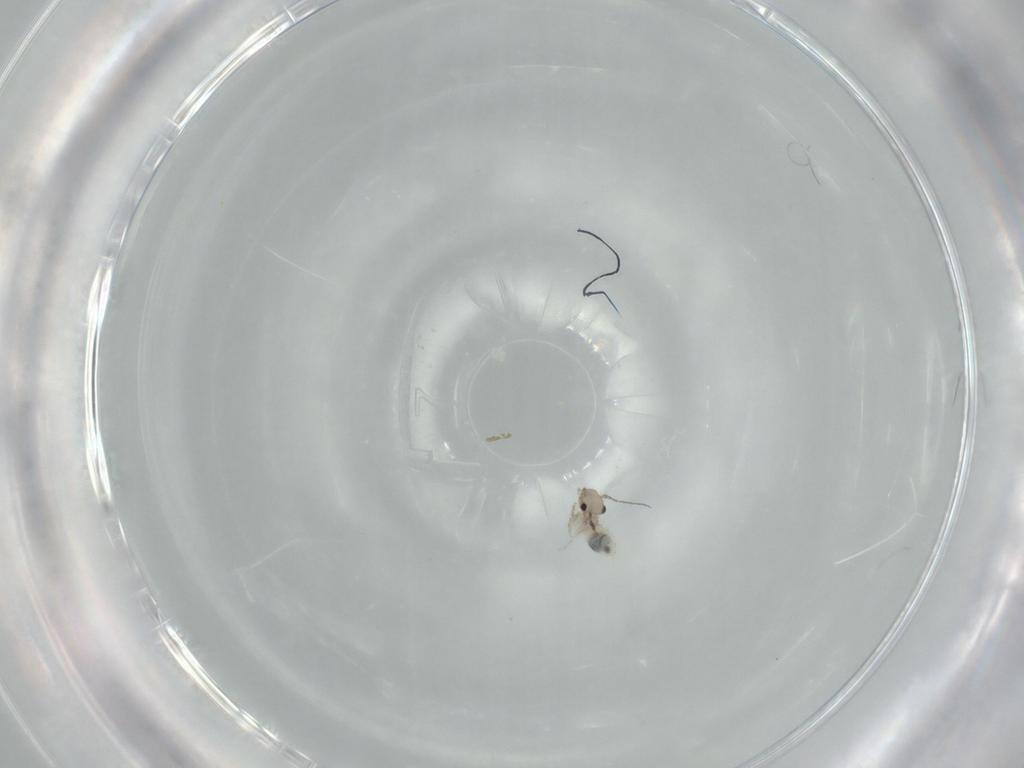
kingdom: Animalia
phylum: Arthropoda
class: Insecta
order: Psocodea
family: Lepidopsocidae
